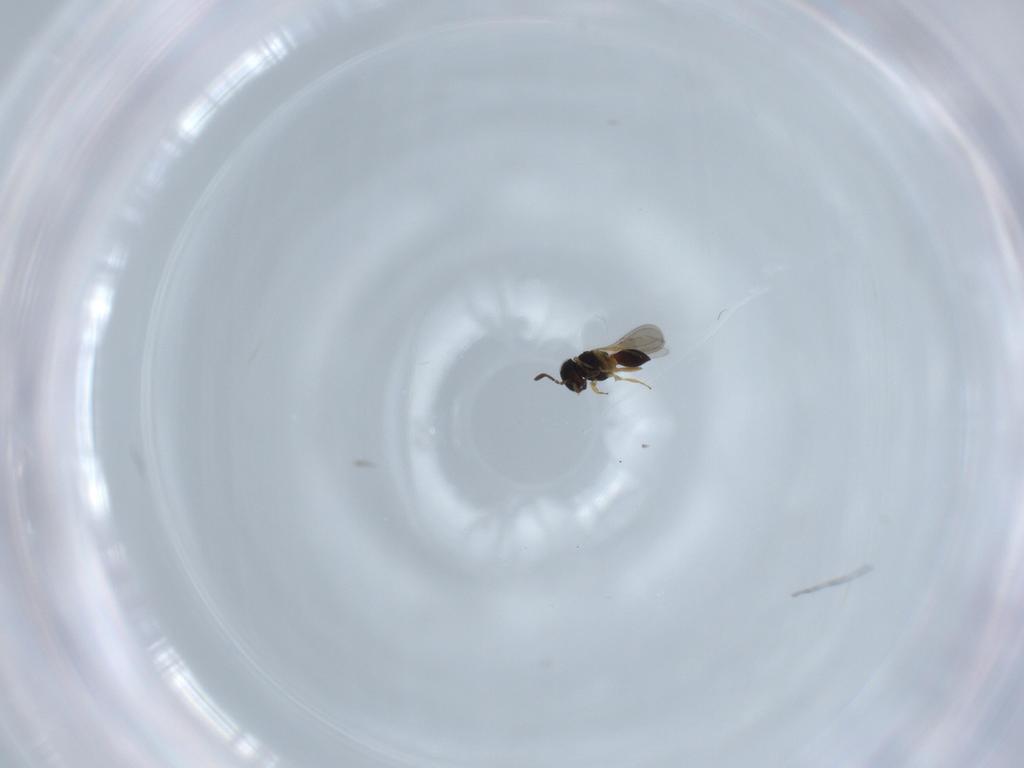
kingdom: Animalia
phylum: Arthropoda
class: Insecta
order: Hymenoptera
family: Scelionidae
